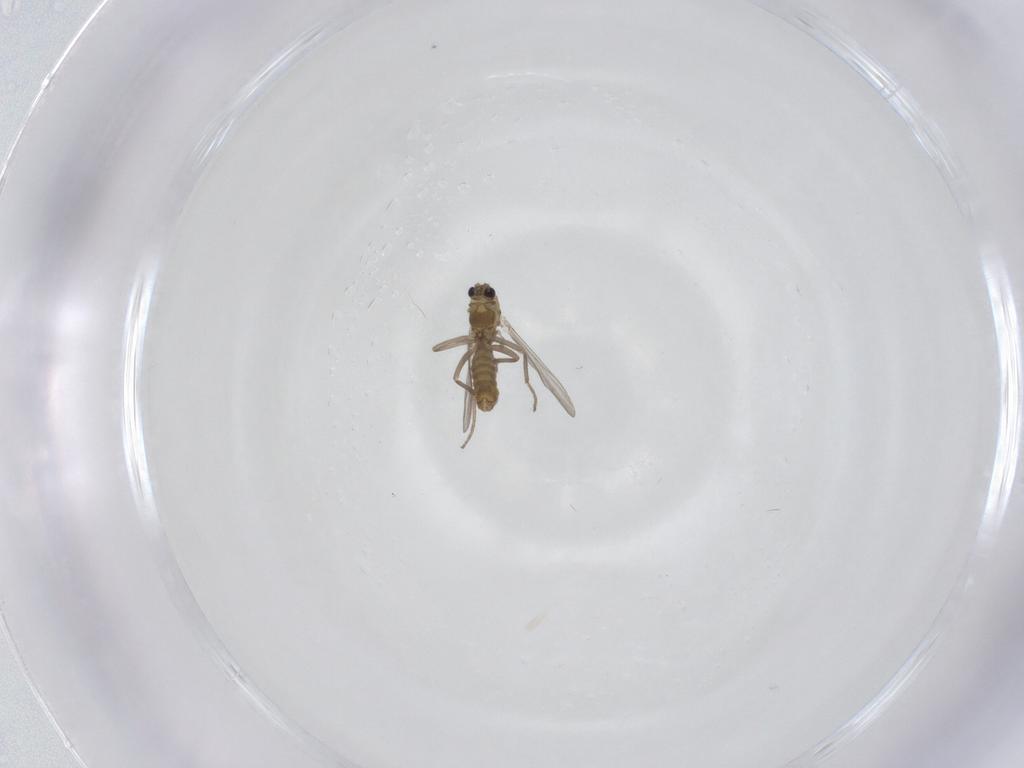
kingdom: Animalia
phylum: Arthropoda
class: Insecta
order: Diptera
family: Chironomidae
